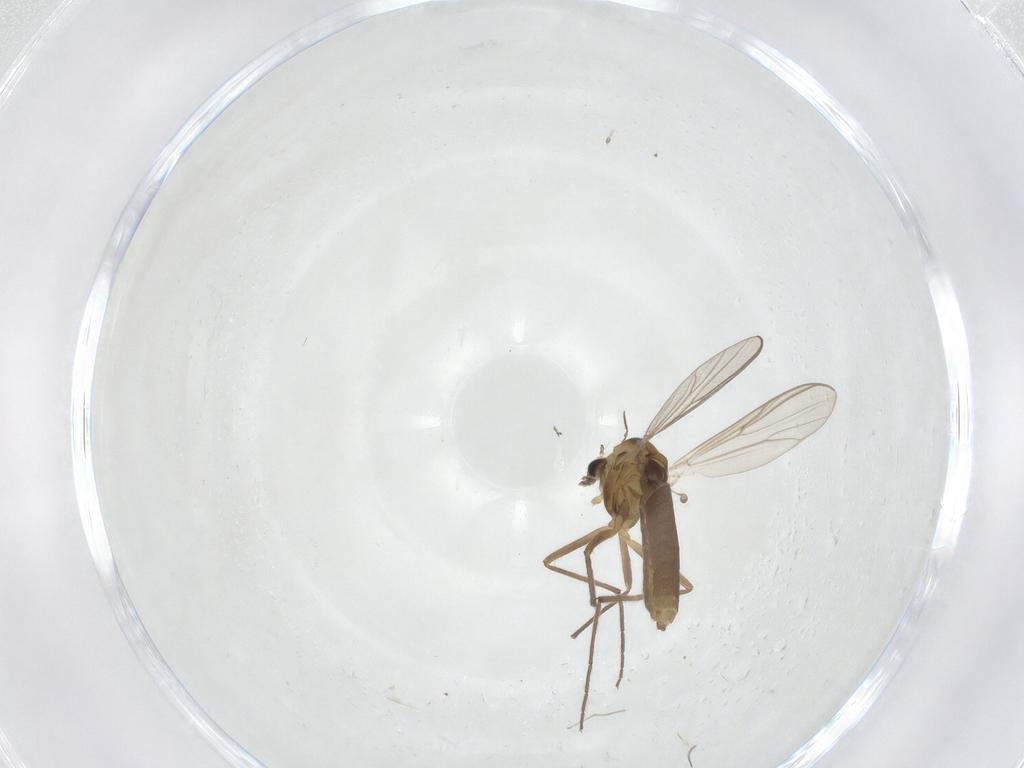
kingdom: Animalia
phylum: Arthropoda
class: Insecta
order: Diptera
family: Chironomidae
